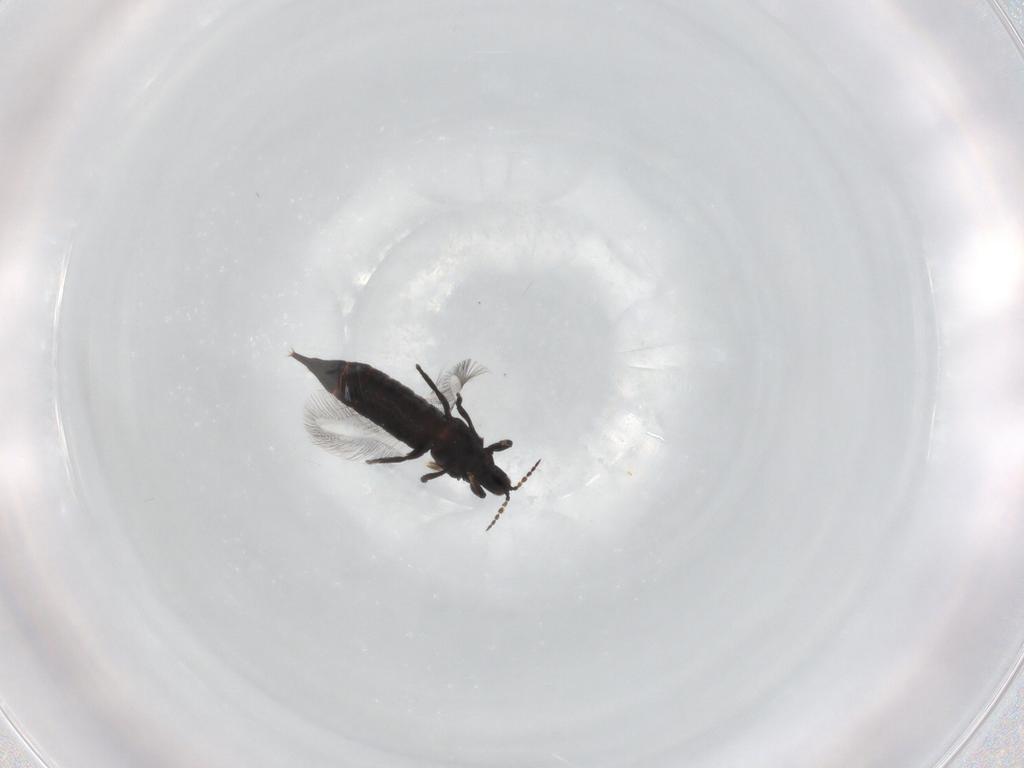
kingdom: Animalia
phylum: Arthropoda
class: Insecta
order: Thysanoptera
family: Phlaeothripidae
